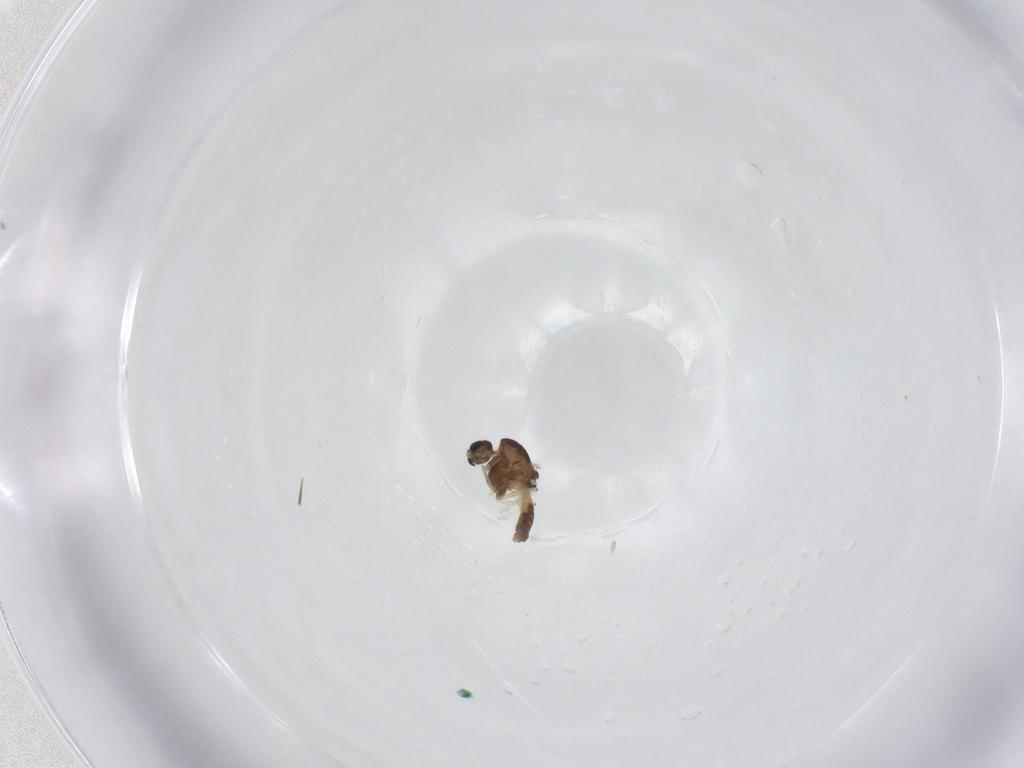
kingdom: Animalia
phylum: Arthropoda
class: Insecta
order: Diptera
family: Chironomidae
